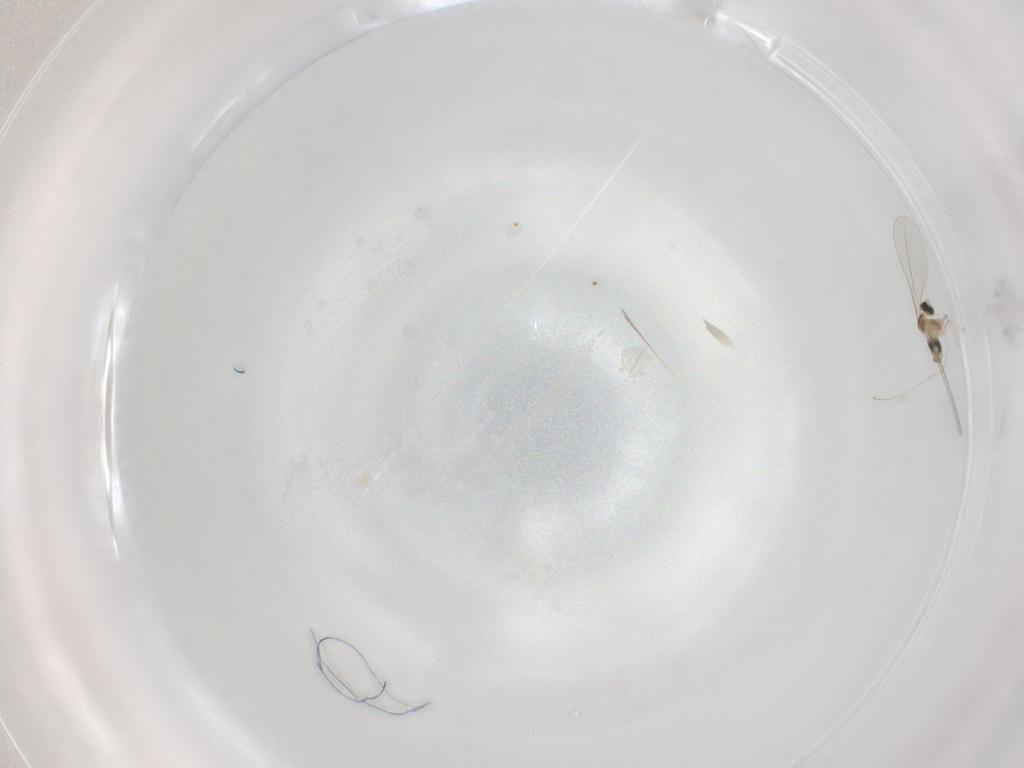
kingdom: Animalia
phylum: Arthropoda
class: Insecta
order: Diptera
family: Cecidomyiidae
